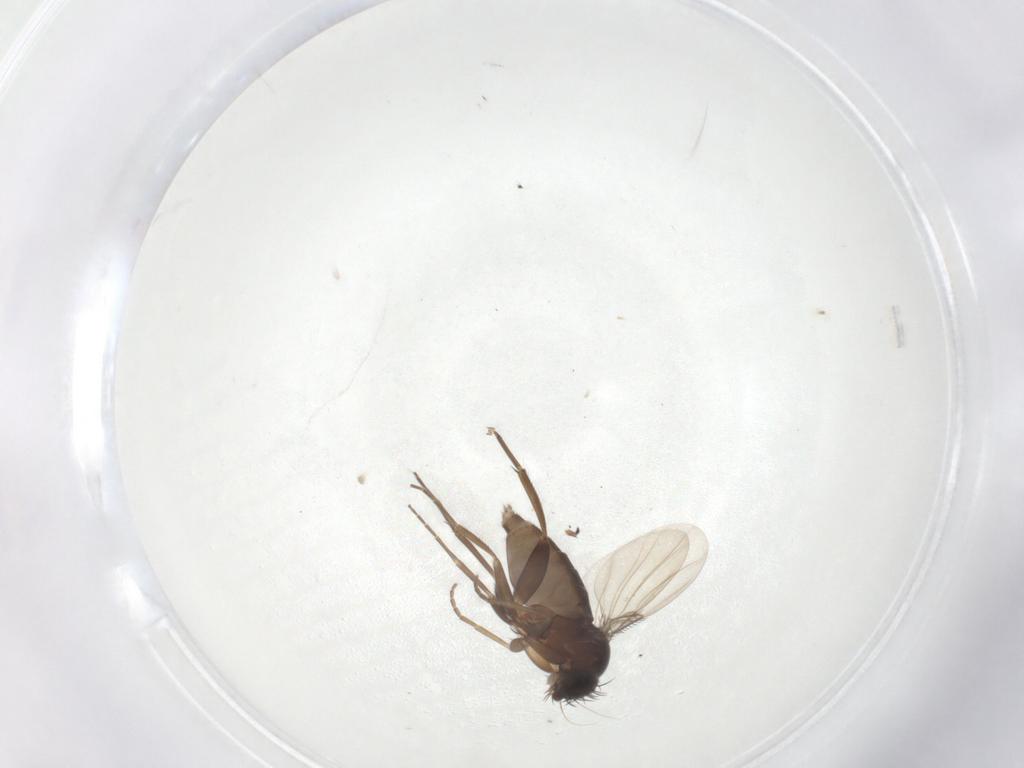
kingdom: Animalia
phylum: Arthropoda
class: Insecta
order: Diptera
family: Phoridae
